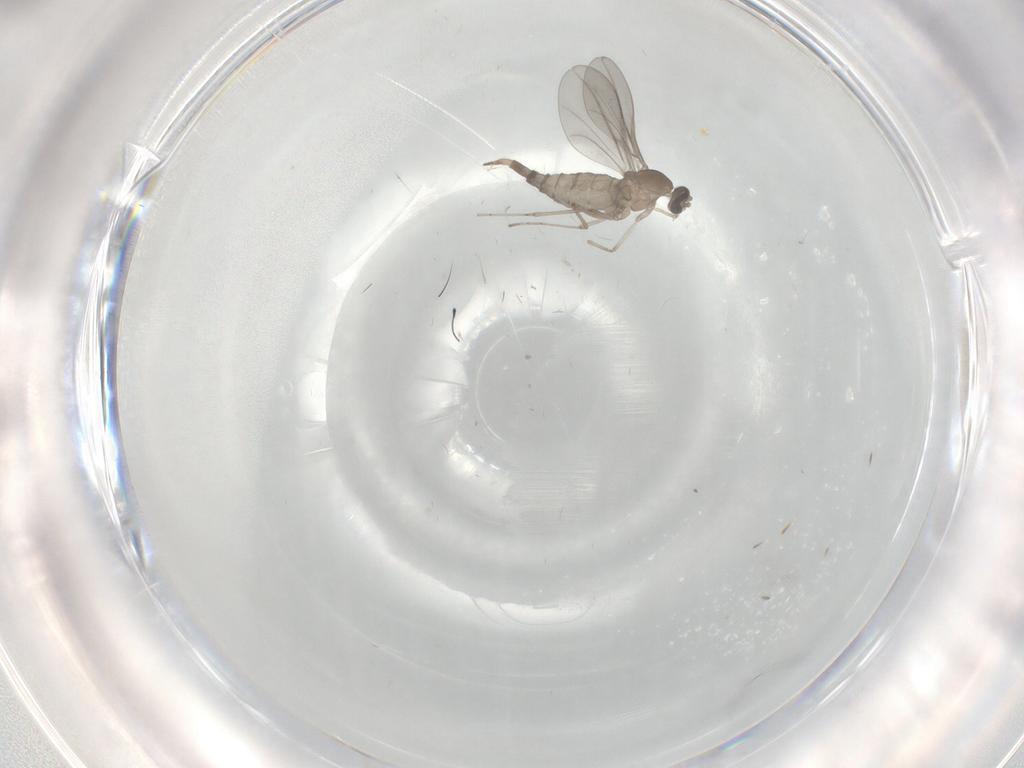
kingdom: Animalia
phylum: Arthropoda
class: Insecta
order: Diptera
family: Cecidomyiidae
